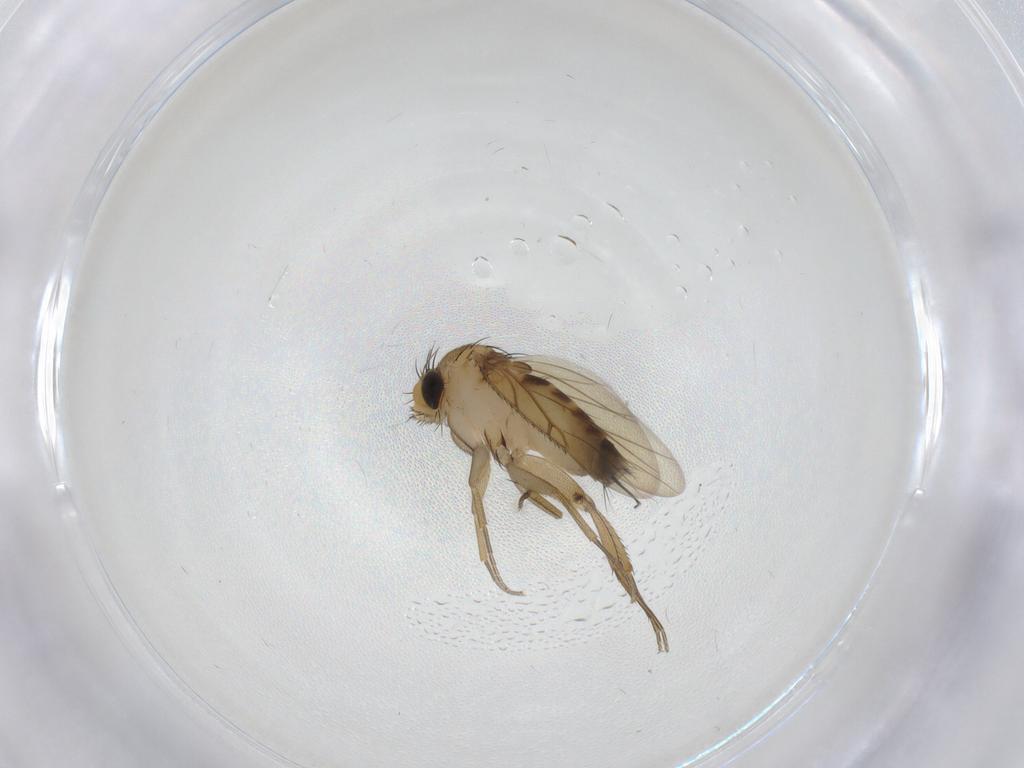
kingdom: Animalia
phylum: Arthropoda
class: Insecta
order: Diptera
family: Phoridae
